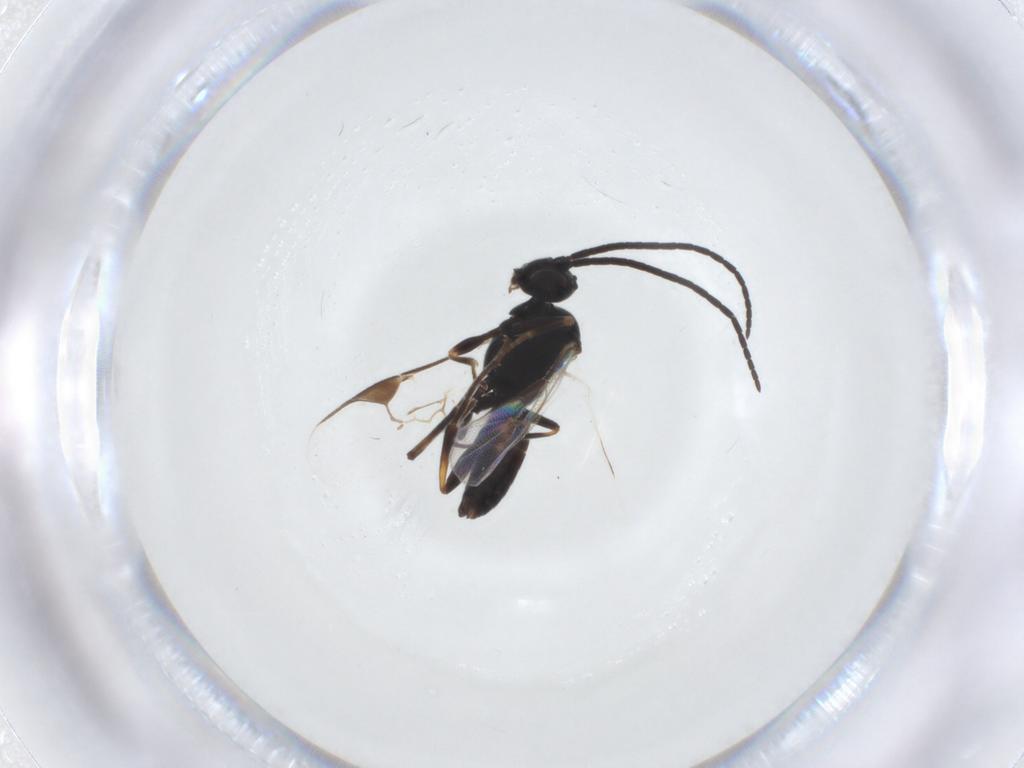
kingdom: Animalia
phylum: Arthropoda
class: Insecta
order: Hymenoptera
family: Braconidae
